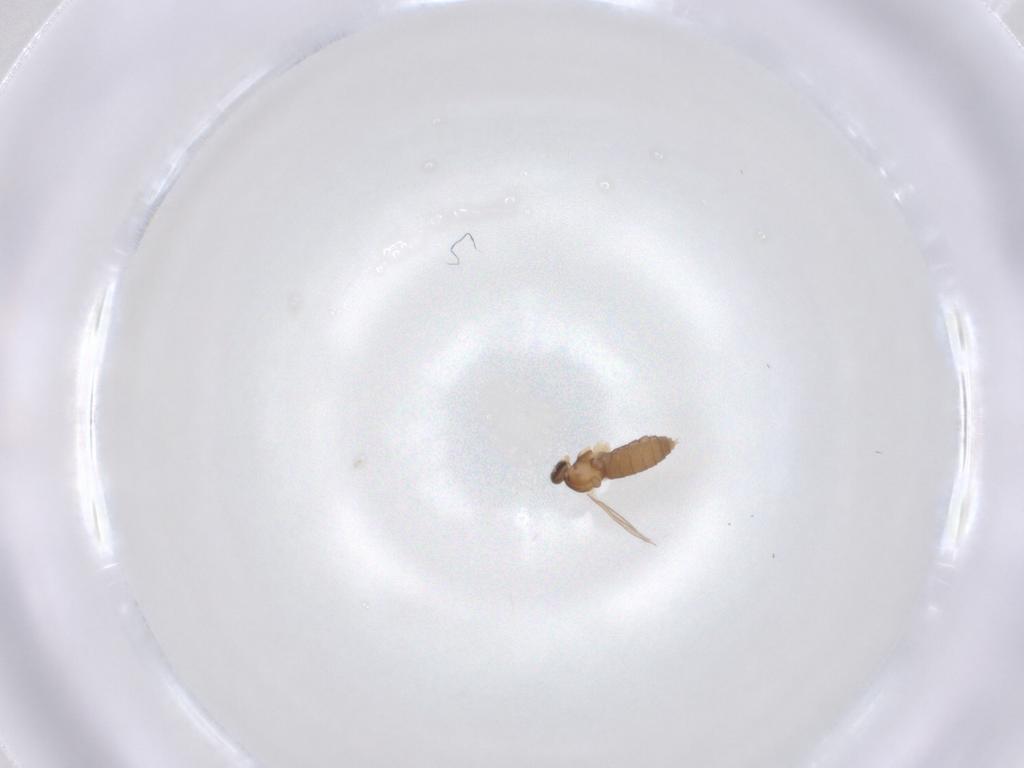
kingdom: Animalia
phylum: Arthropoda
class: Insecta
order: Diptera
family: Cecidomyiidae
